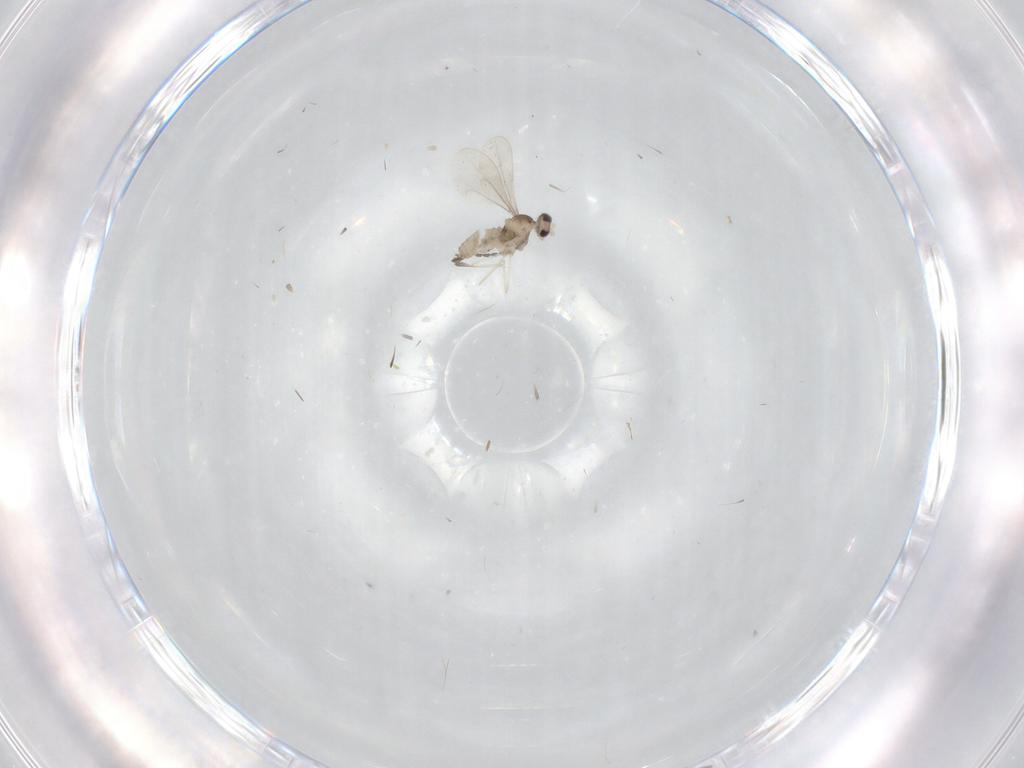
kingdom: Animalia
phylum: Arthropoda
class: Insecta
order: Diptera
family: Cecidomyiidae
